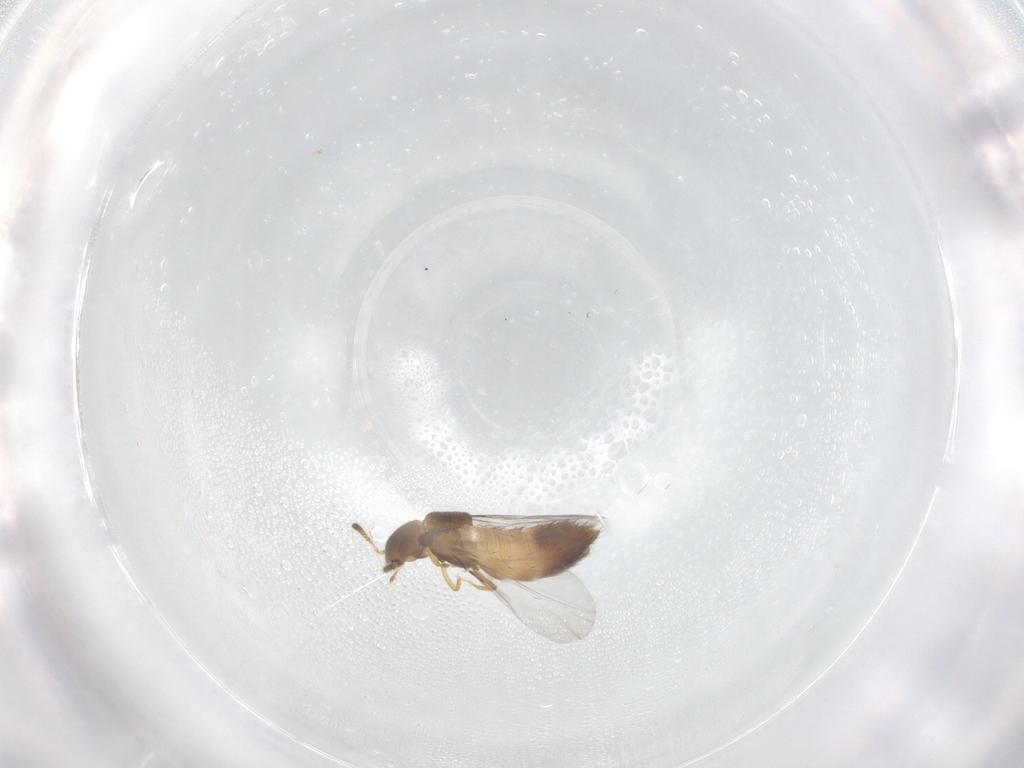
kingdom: Animalia
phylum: Arthropoda
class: Insecta
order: Coleoptera
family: Staphylinidae
